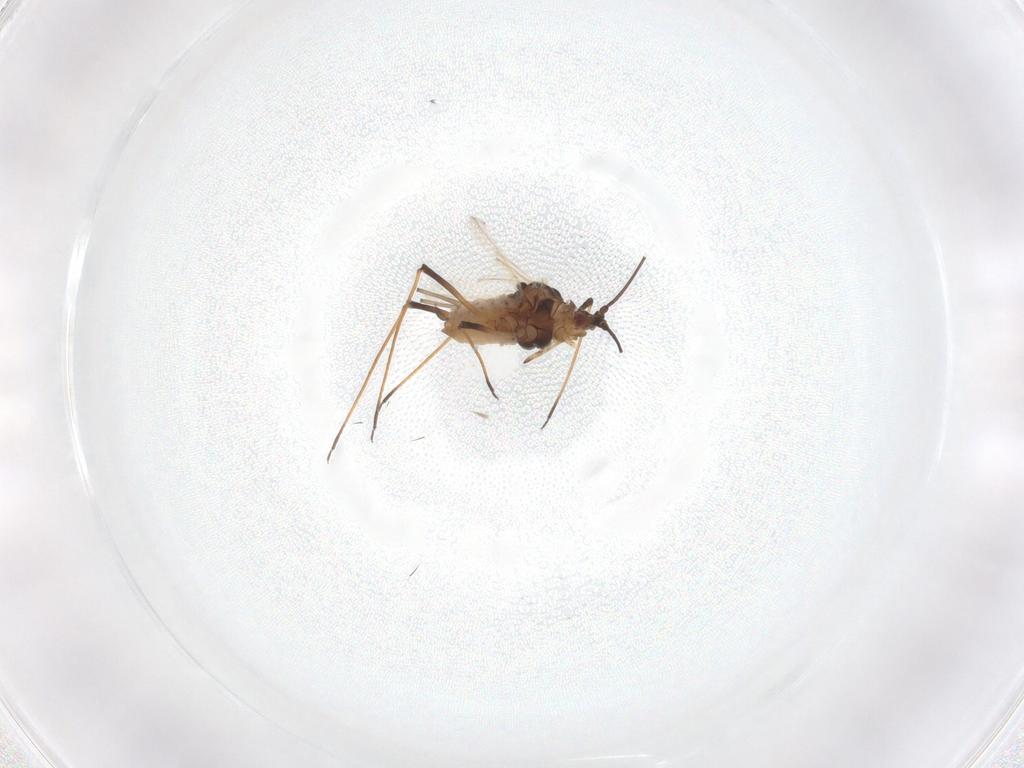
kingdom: Animalia
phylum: Arthropoda
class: Insecta
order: Hemiptera
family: Aphididae
